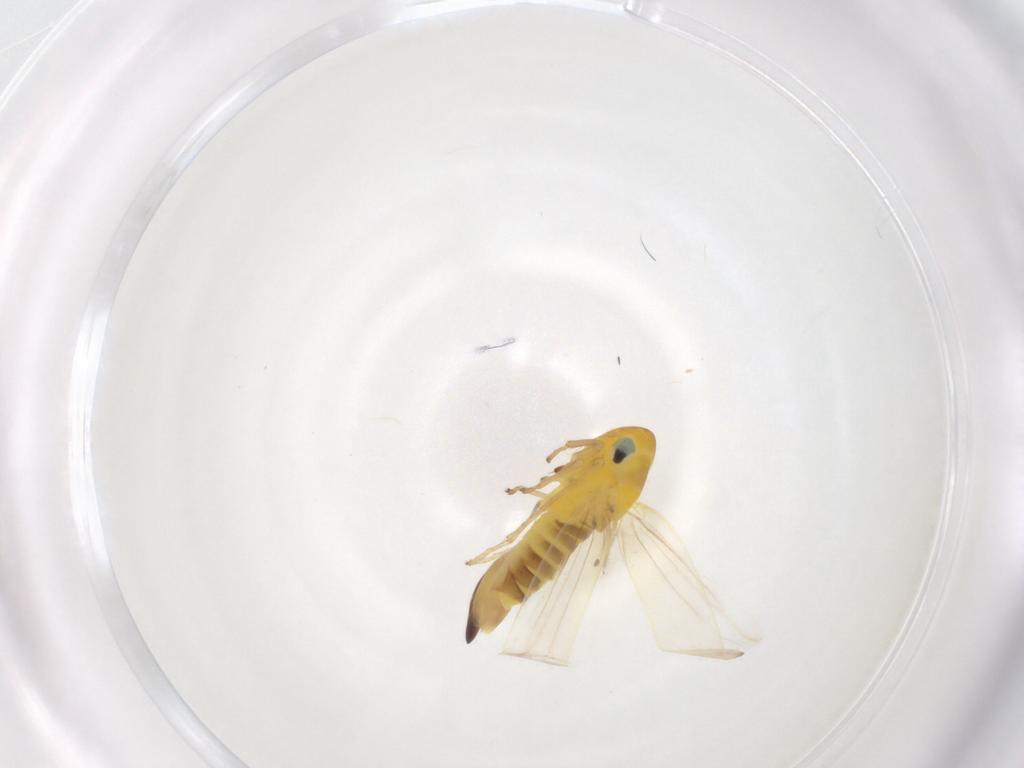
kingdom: Animalia
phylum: Arthropoda
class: Insecta
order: Hemiptera
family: Cicadellidae
